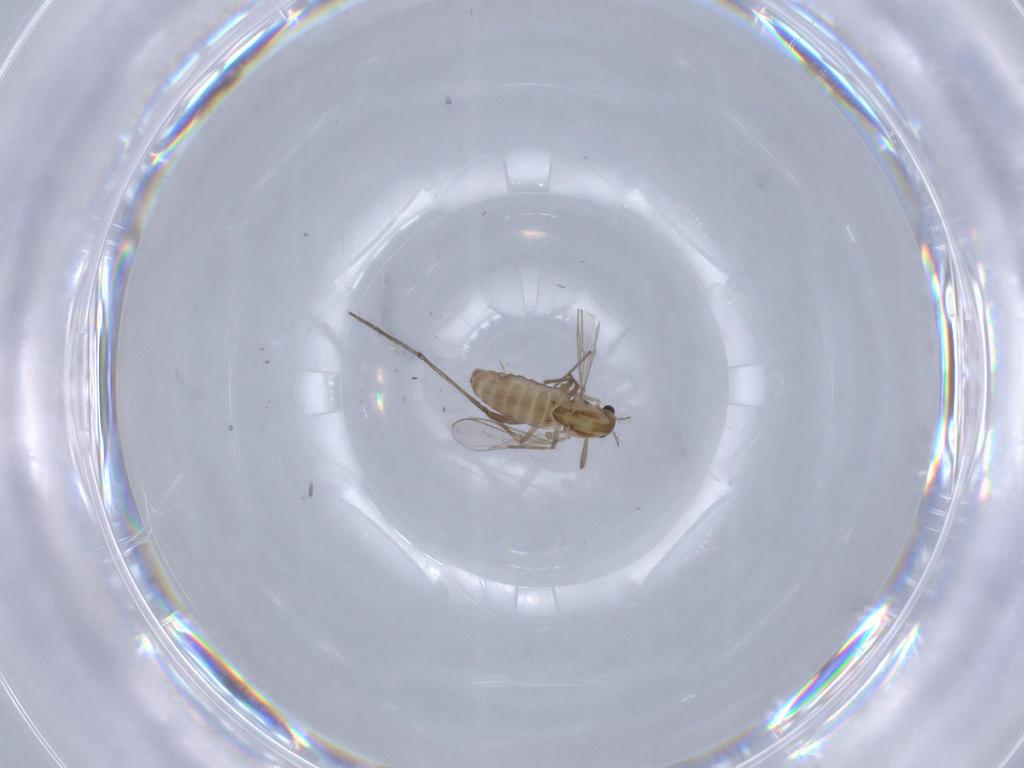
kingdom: Animalia
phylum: Arthropoda
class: Insecta
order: Diptera
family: Chironomidae
